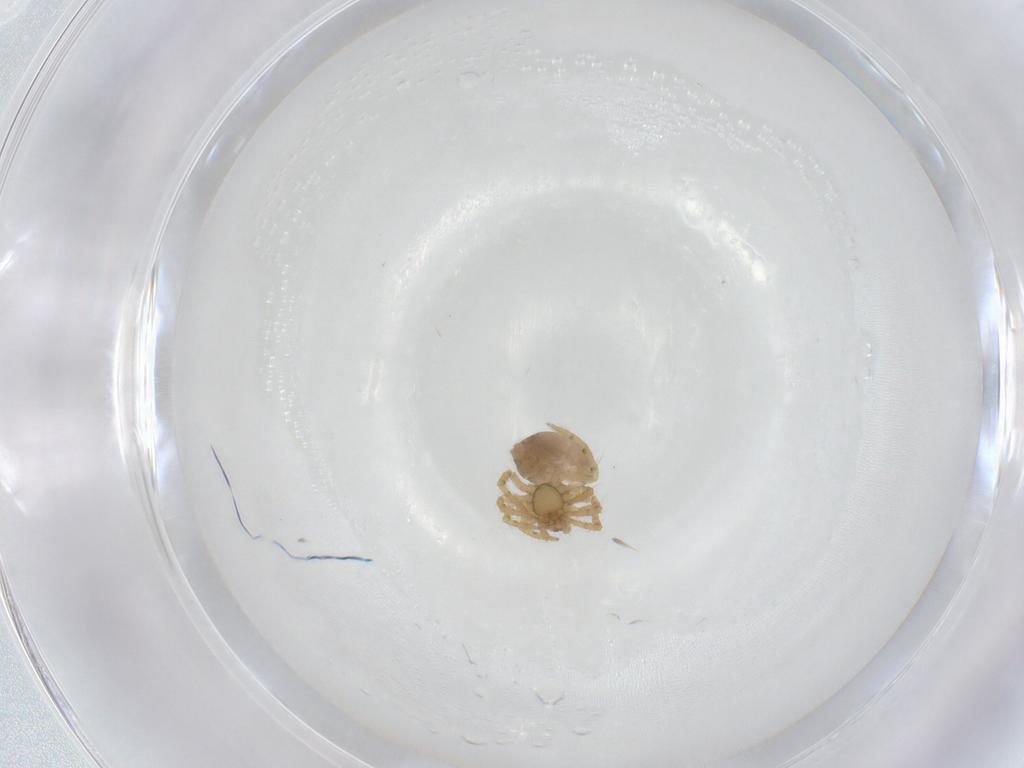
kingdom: Animalia
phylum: Arthropoda
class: Arachnida
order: Araneae
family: Theridiidae
